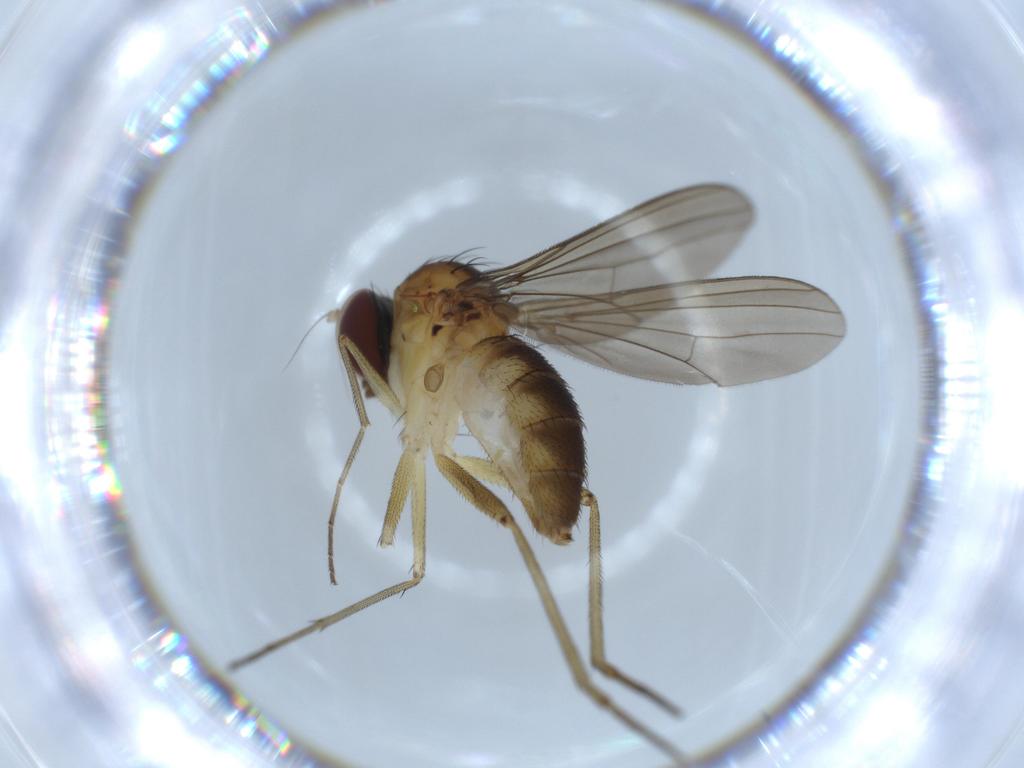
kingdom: Animalia
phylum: Arthropoda
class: Insecta
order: Diptera
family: Dolichopodidae
